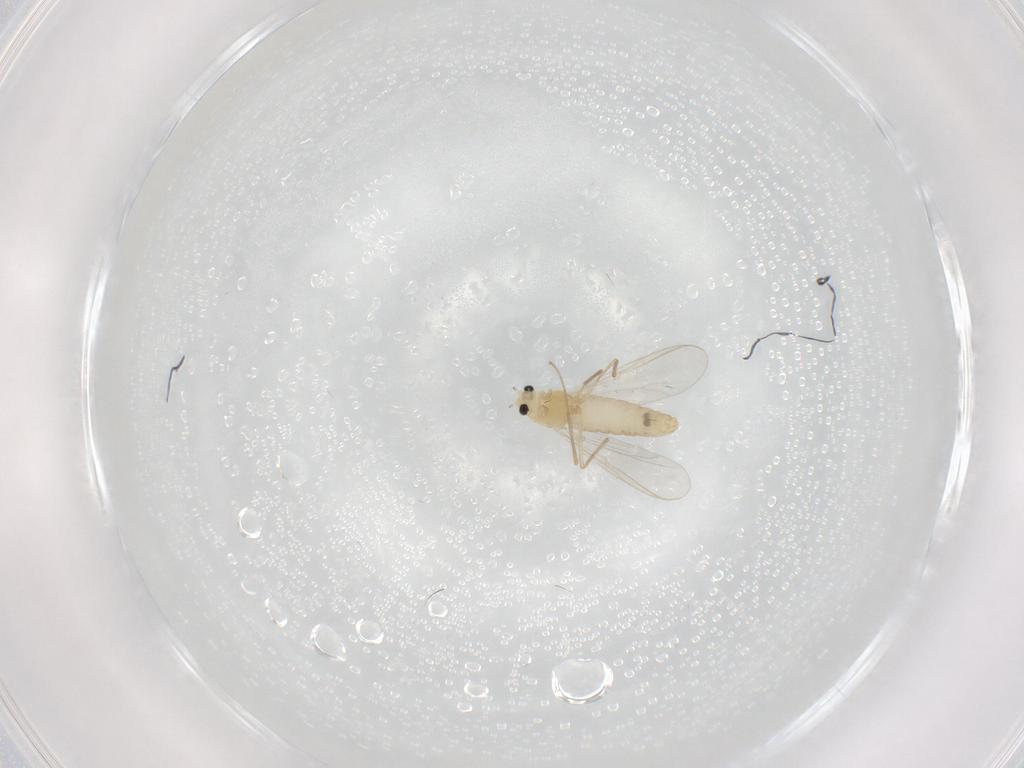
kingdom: Animalia
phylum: Arthropoda
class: Insecta
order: Diptera
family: Chironomidae
